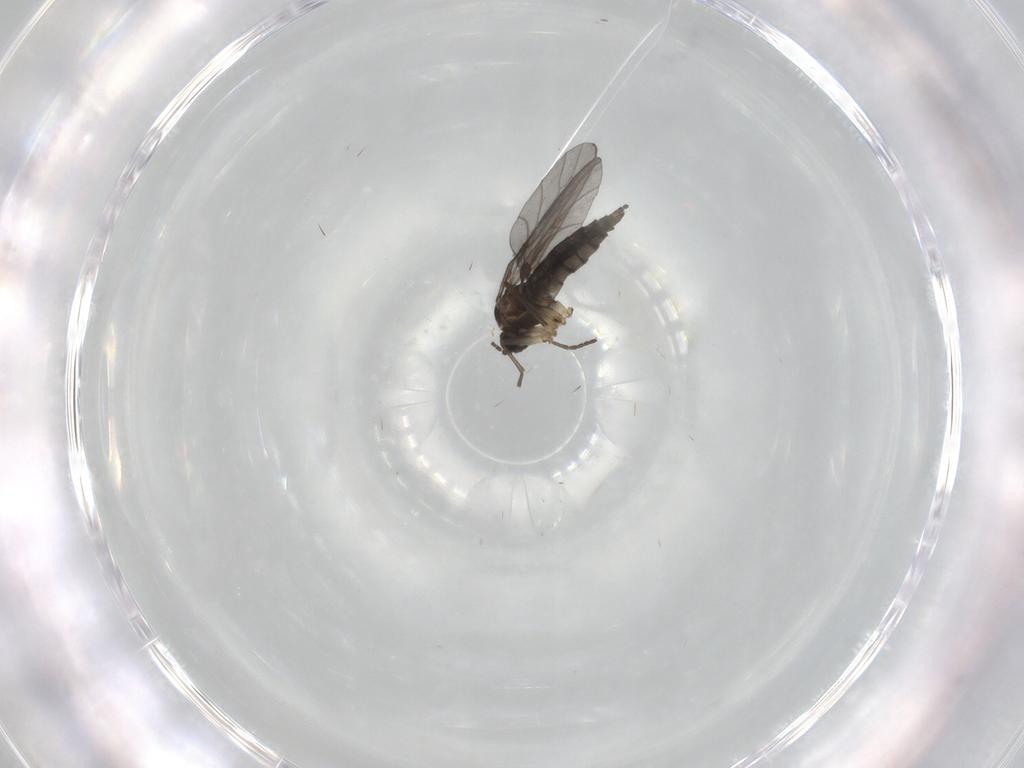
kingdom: Animalia
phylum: Arthropoda
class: Insecta
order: Diptera
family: Sciaridae
